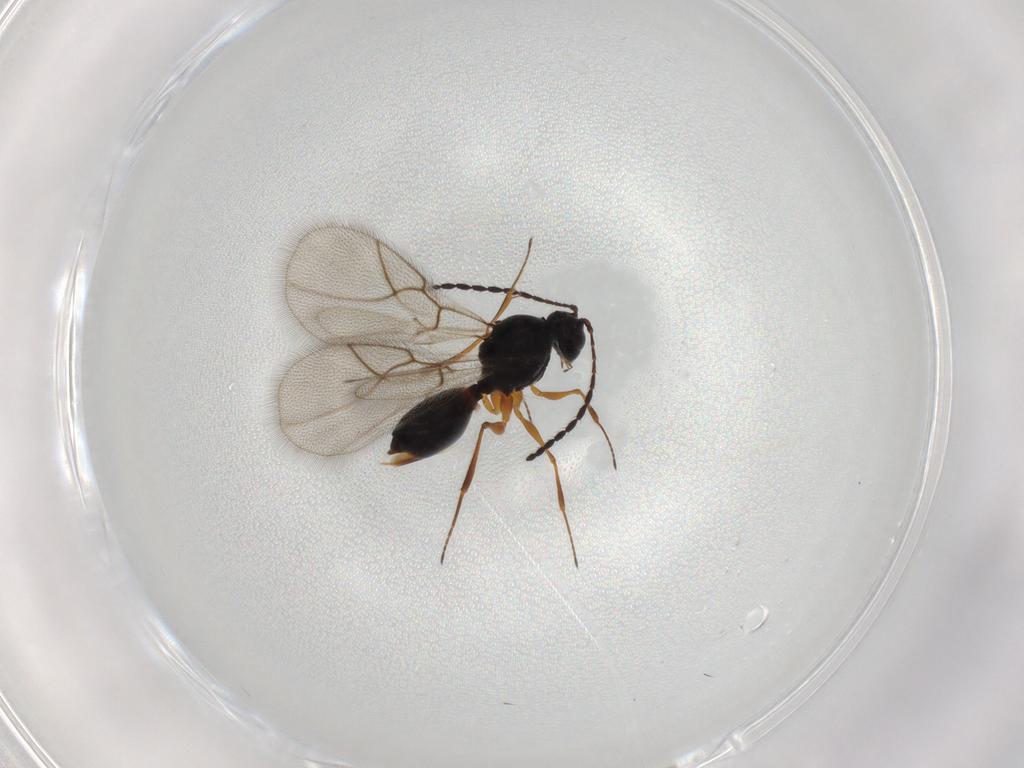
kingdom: Animalia
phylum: Arthropoda
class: Insecta
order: Hymenoptera
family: Figitidae
